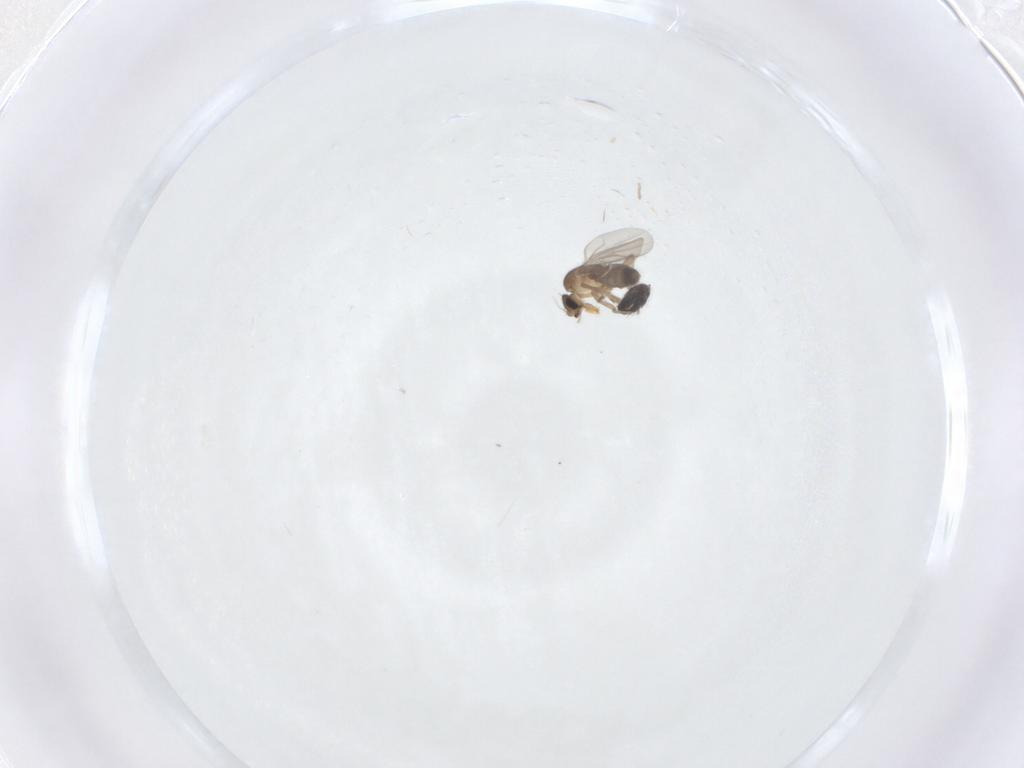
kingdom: Animalia
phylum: Arthropoda
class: Insecta
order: Diptera
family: Phoridae
